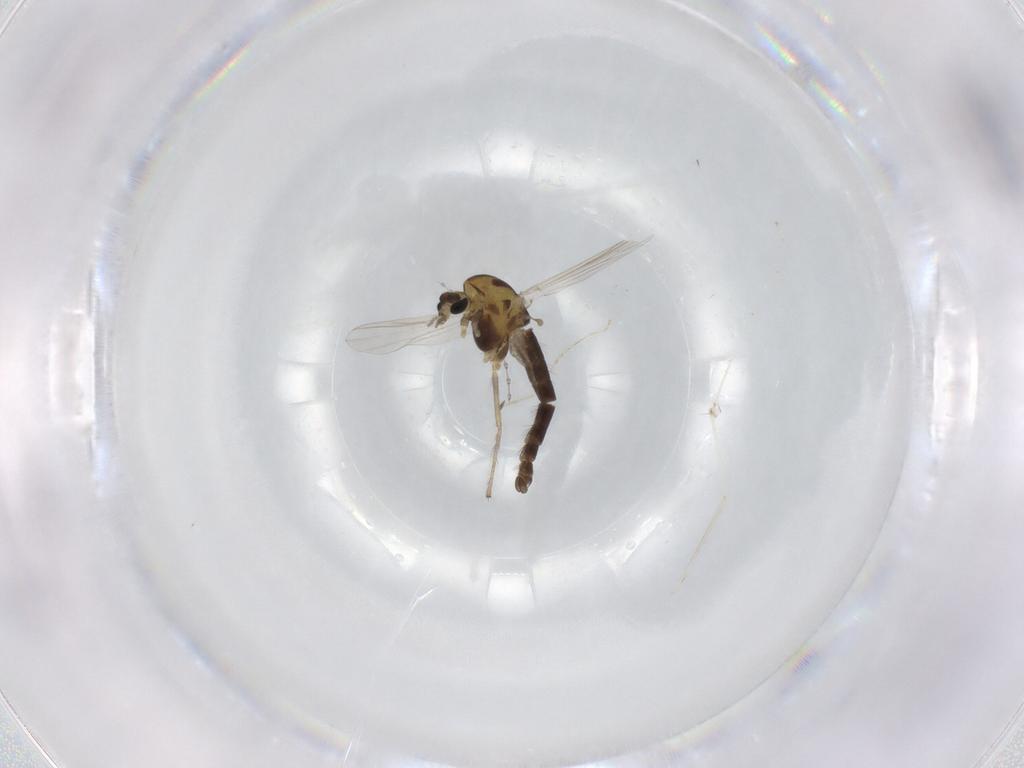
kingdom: Animalia
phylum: Arthropoda
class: Insecta
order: Diptera
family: Chironomidae
